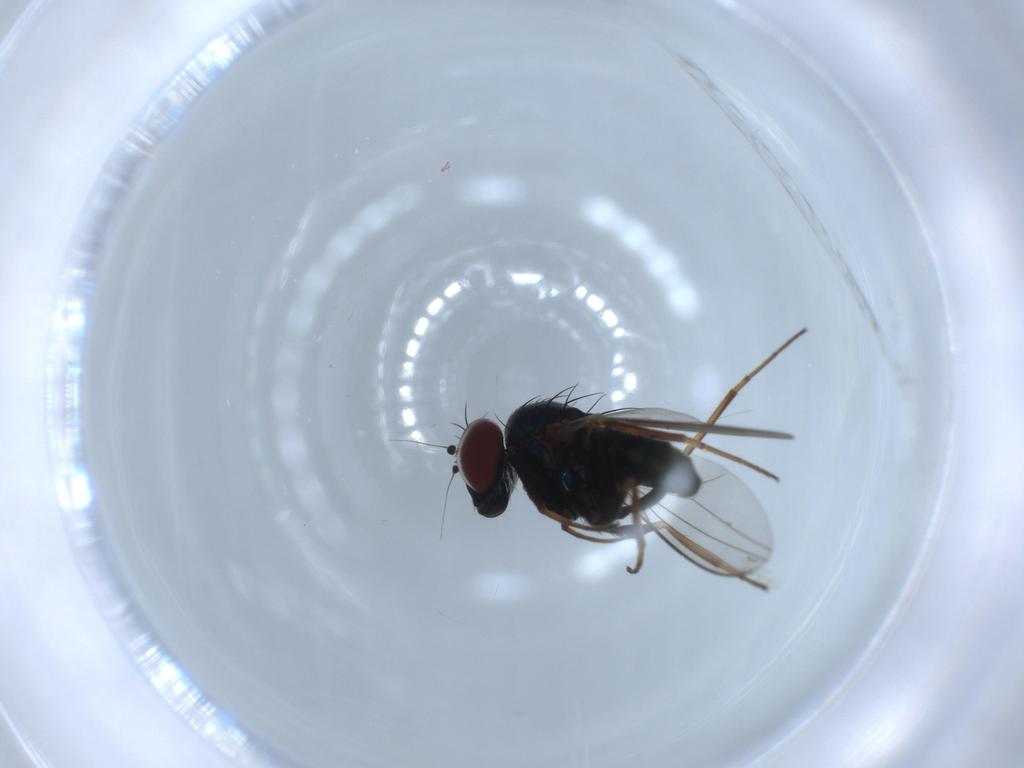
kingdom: Animalia
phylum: Arthropoda
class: Insecta
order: Diptera
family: Dolichopodidae
